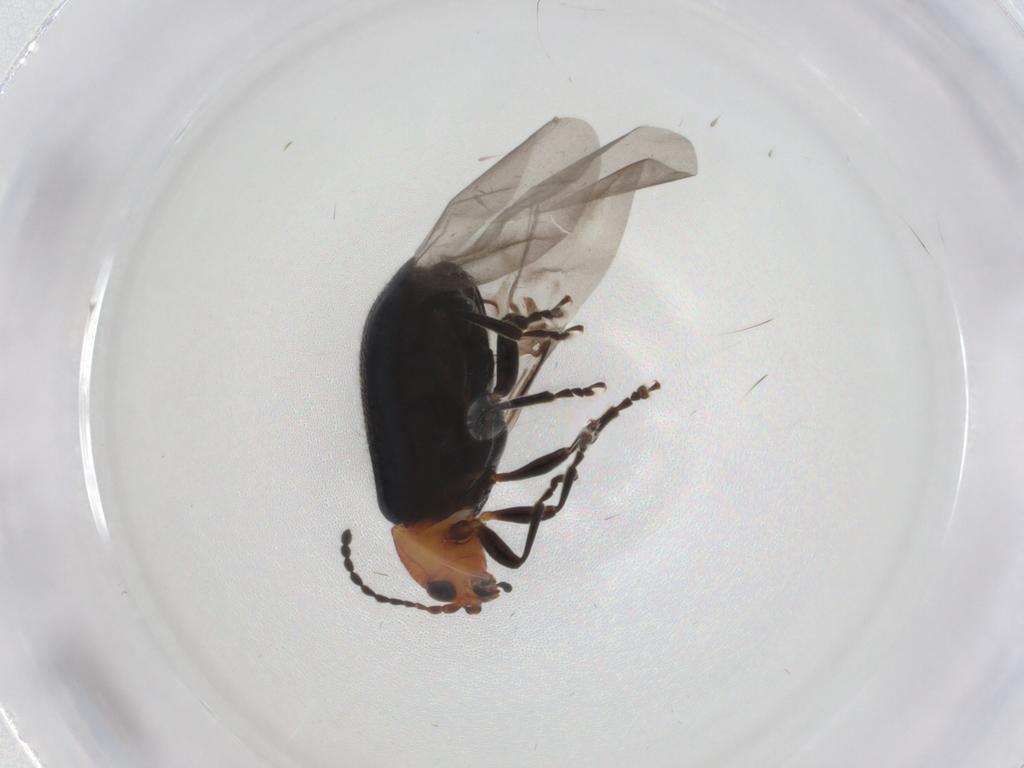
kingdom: Animalia
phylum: Arthropoda
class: Insecta
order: Coleoptera
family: Chrysomelidae
